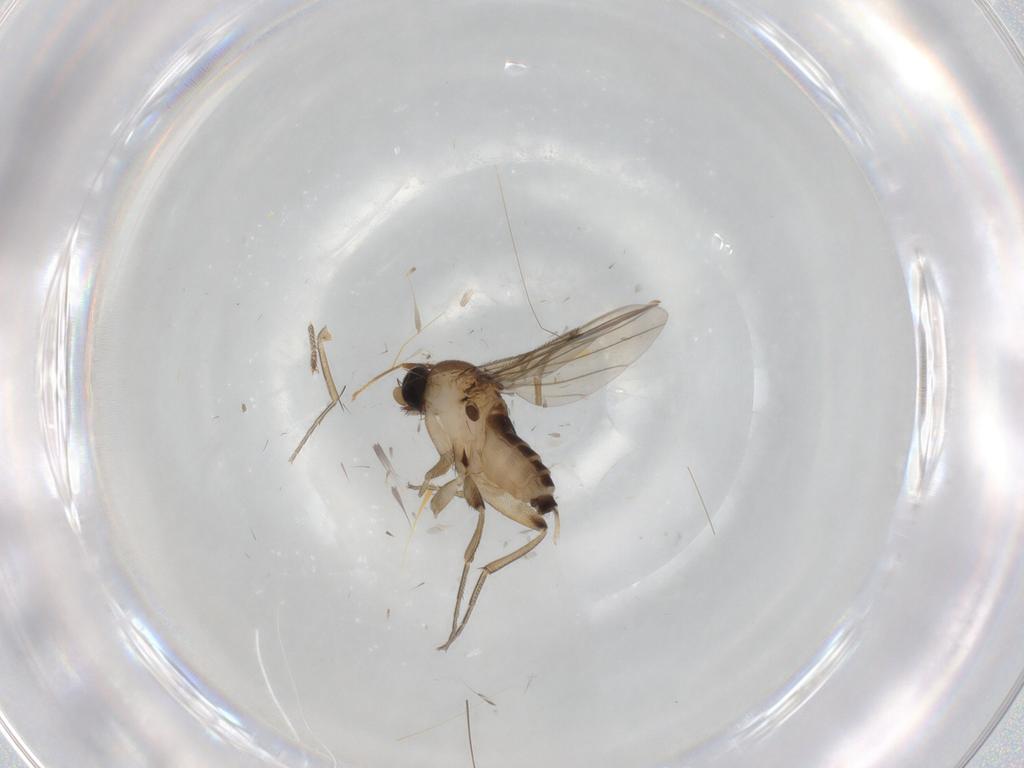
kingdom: Animalia
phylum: Arthropoda
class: Insecta
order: Diptera
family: Phoridae
